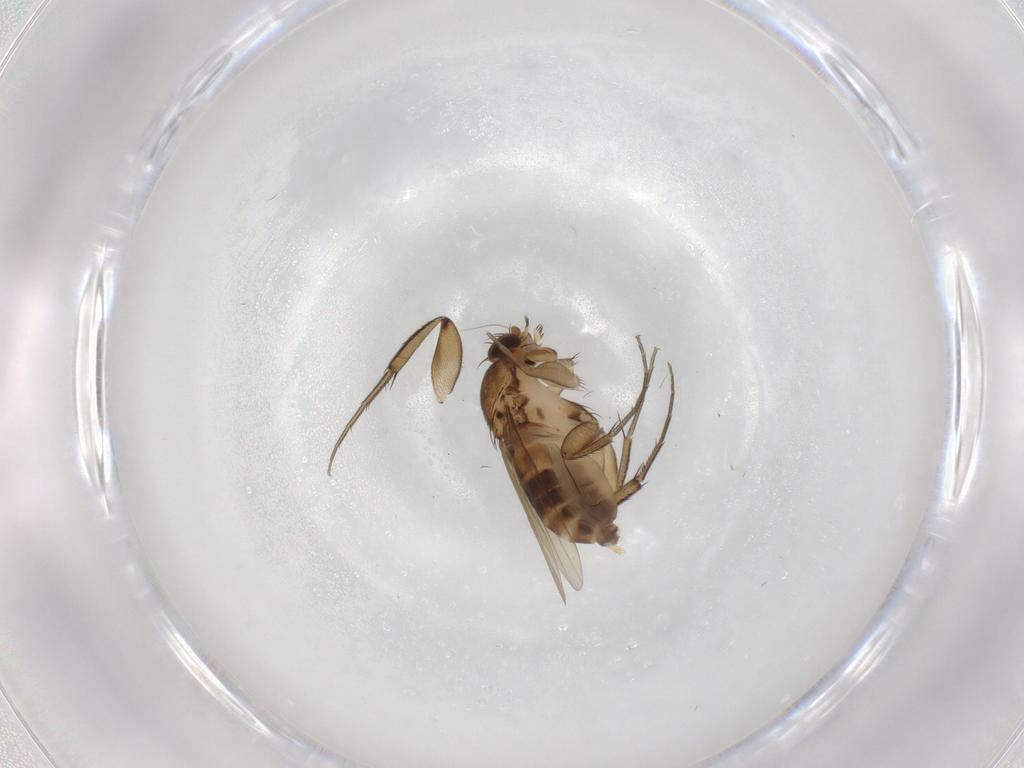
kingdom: Animalia
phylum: Arthropoda
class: Insecta
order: Diptera
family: Phoridae
